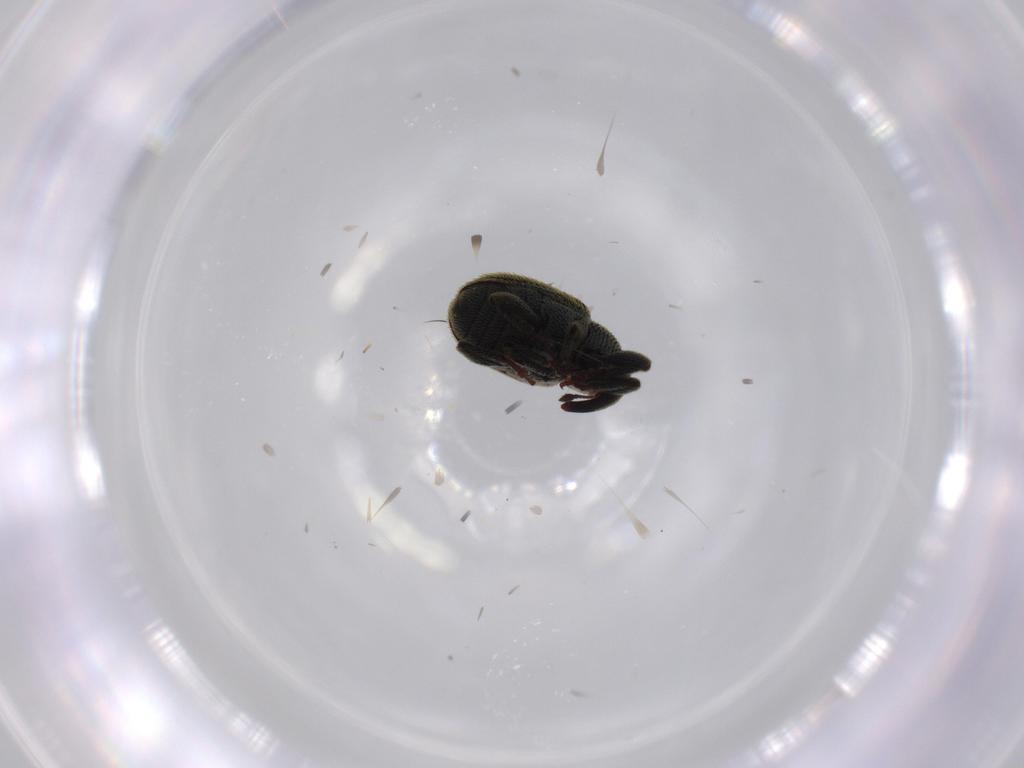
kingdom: Animalia
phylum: Arthropoda
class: Insecta
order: Coleoptera
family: Curculionidae
